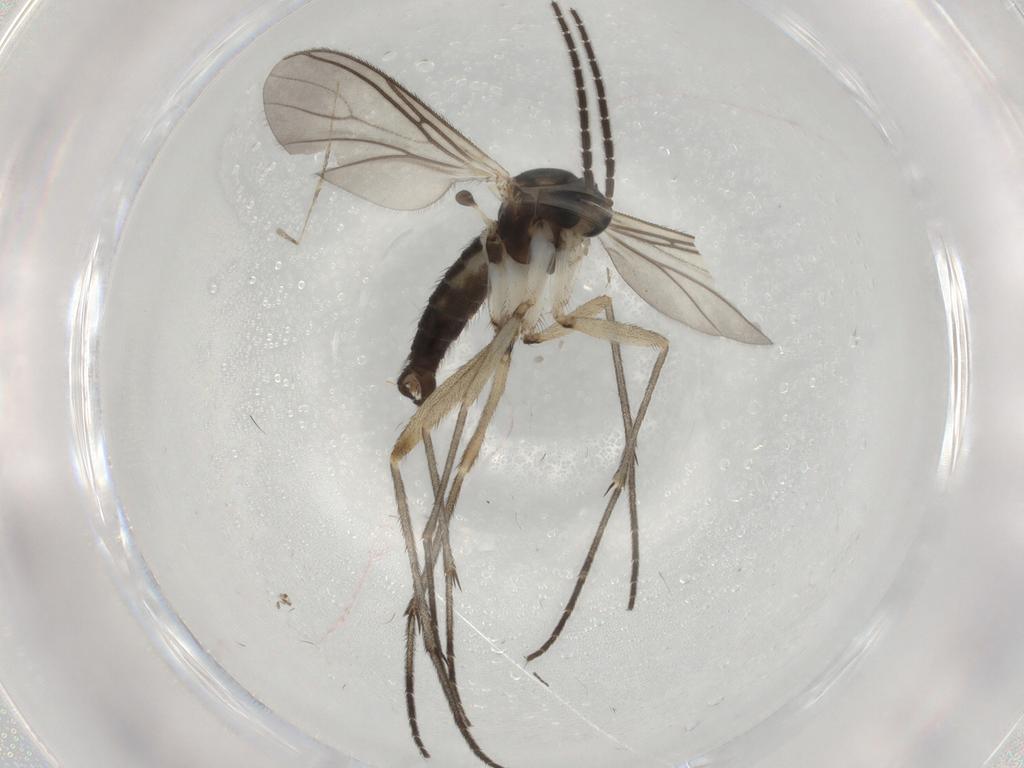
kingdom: Animalia
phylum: Arthropoda
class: Insecta
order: Diptera
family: Sciaridae
